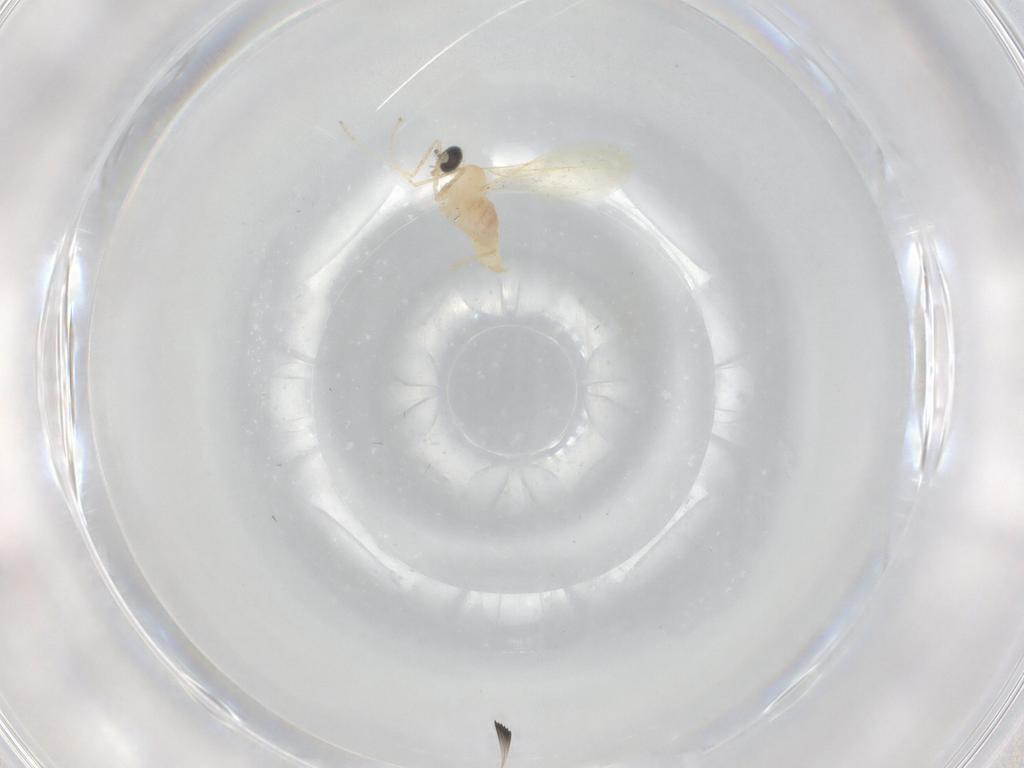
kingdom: Animalia
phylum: Arthropoda
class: Insecta
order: Diptera
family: Cecidomyiidae
